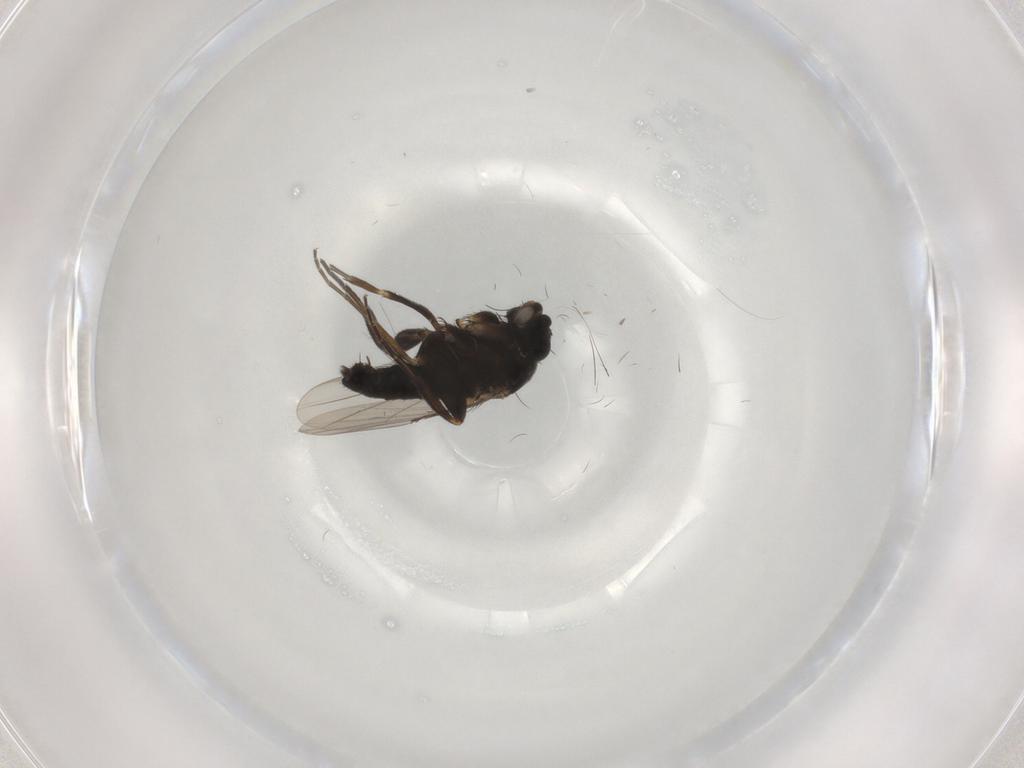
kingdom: Animalia
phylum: Arthropoda
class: Insecta
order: Diptera
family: Phoridae
